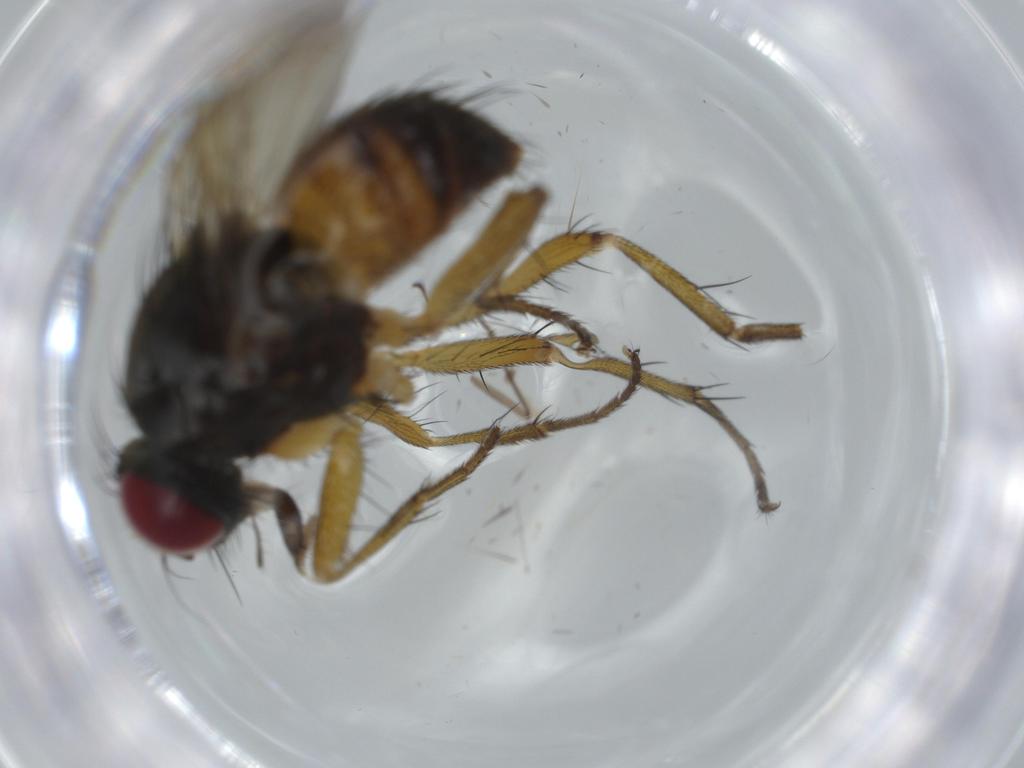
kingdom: Animalia
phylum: Arthropoda
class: Insecta
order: Diptera
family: Muscidae
